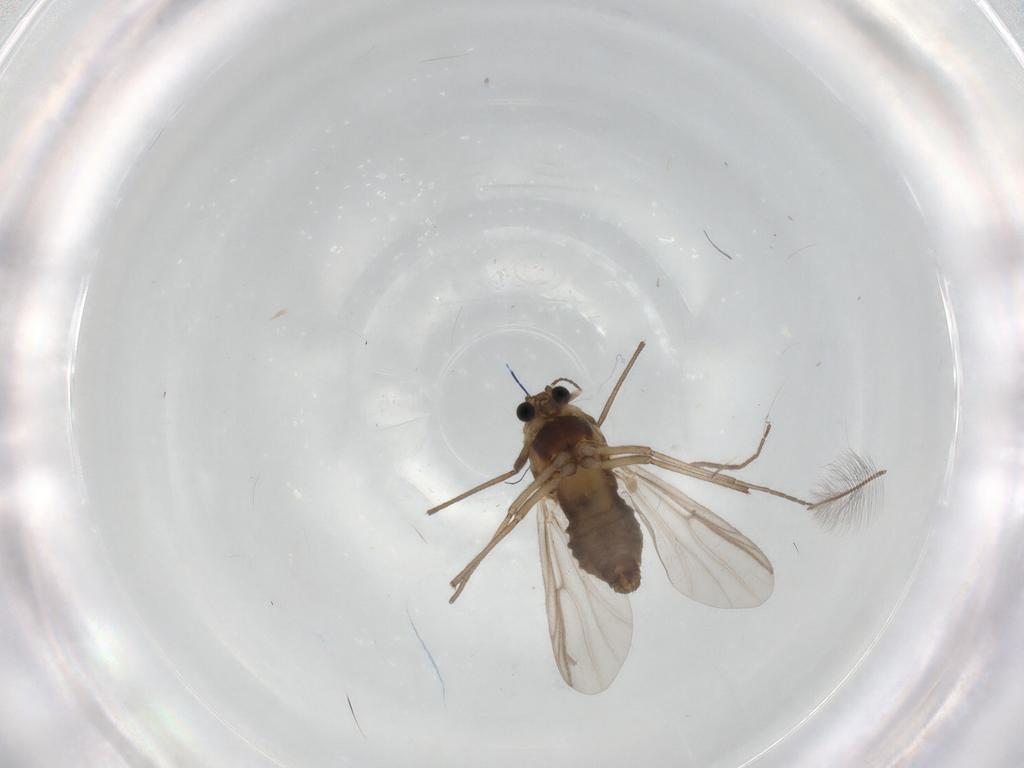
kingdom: Animalia
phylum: Arthropoda
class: Insecta
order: Diptera
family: Chironomidae
